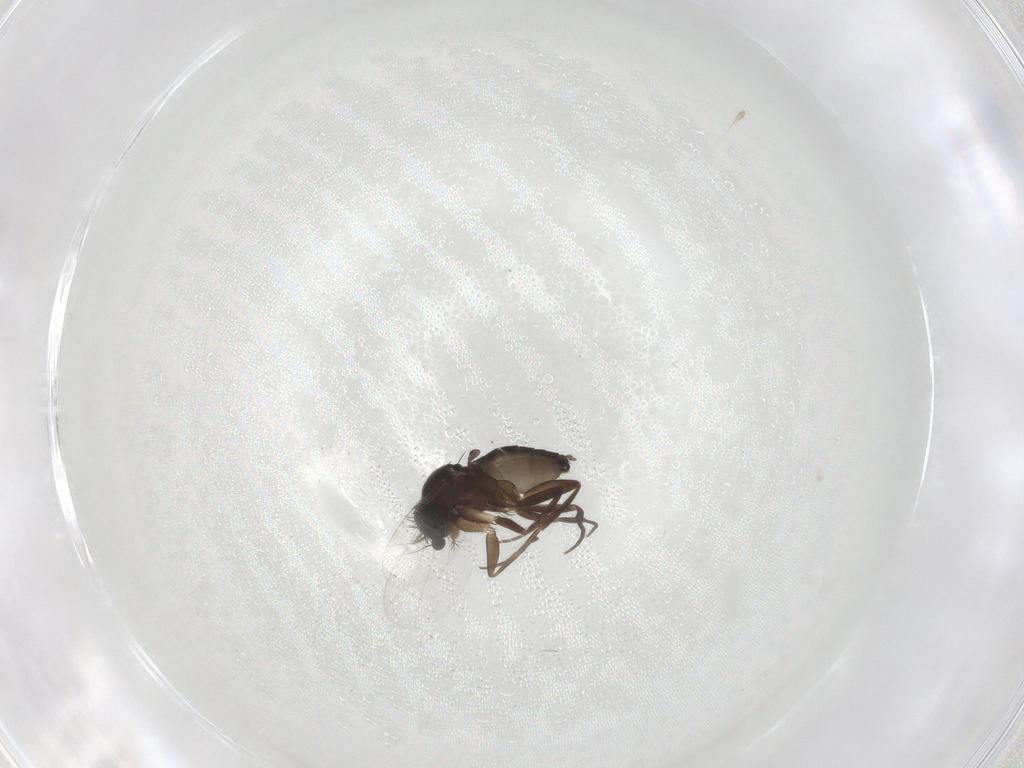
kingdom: Animalia
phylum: Arthropoda
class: Insecta
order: Diptera
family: Phoridae
